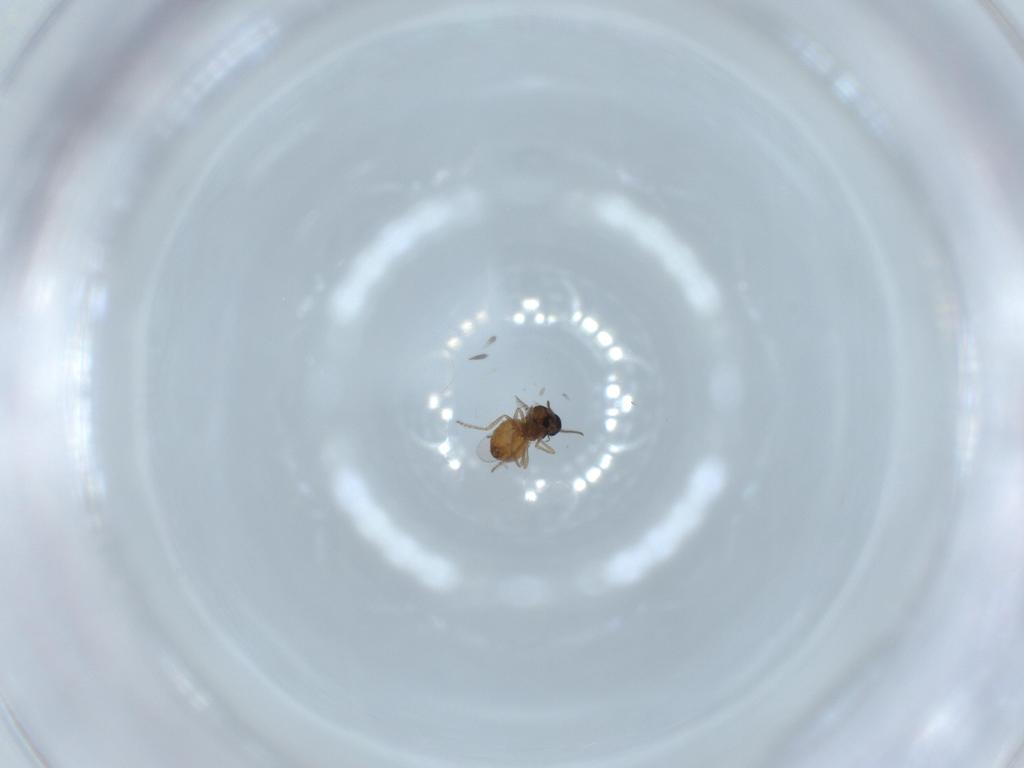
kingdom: Animalia
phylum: Arthropoda
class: Insecta
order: Diptera
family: Ceratopogonidae
